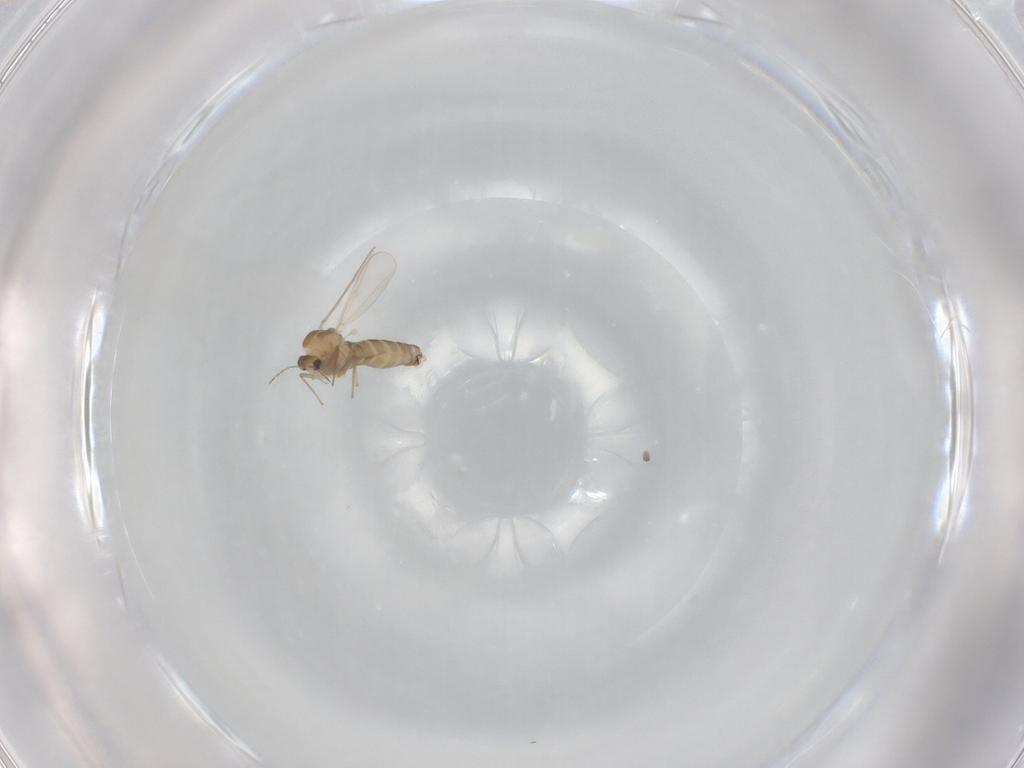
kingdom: Animalia
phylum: Arthropoda
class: Insecta
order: Diptera
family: Chironomidae
